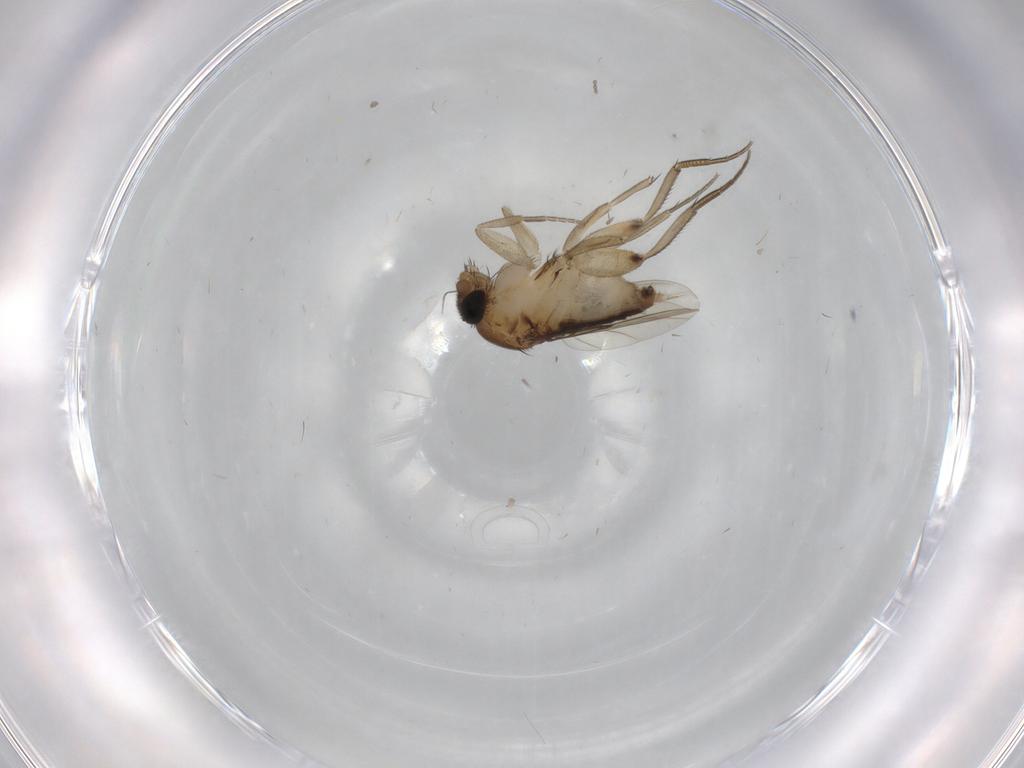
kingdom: Animalia
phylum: Arthropoda
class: Insecta
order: Diptera
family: Phoridae
